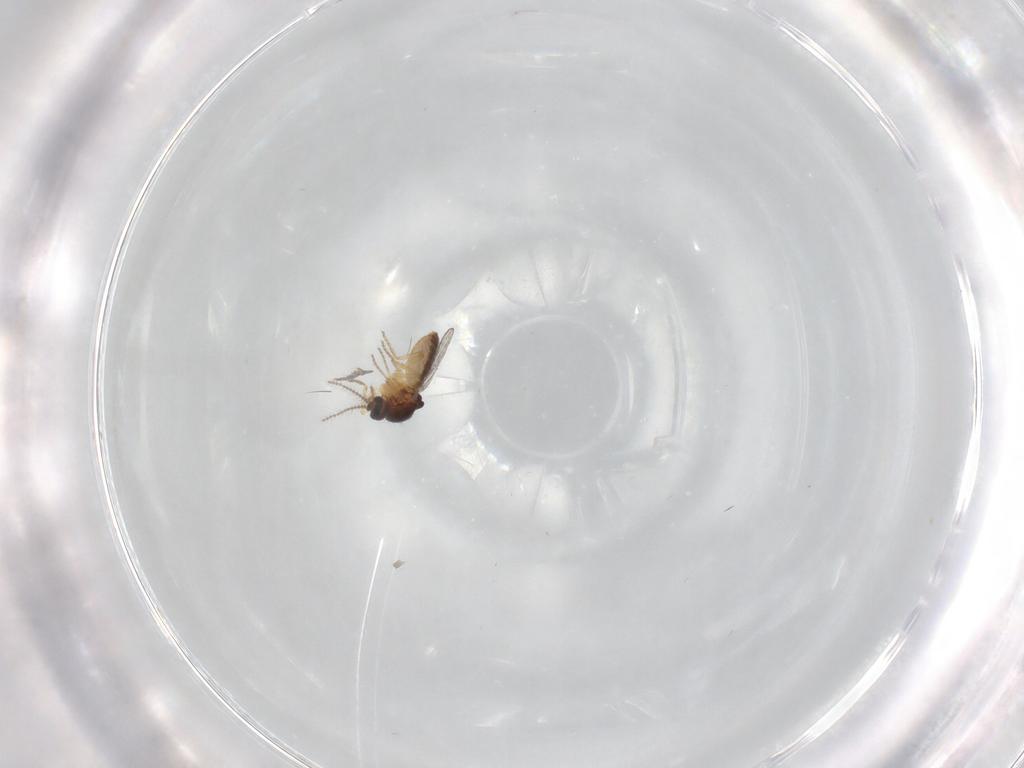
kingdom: Animalia
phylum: Arthropoda
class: Insecta
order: Diptera
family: Ceratopogonidae
